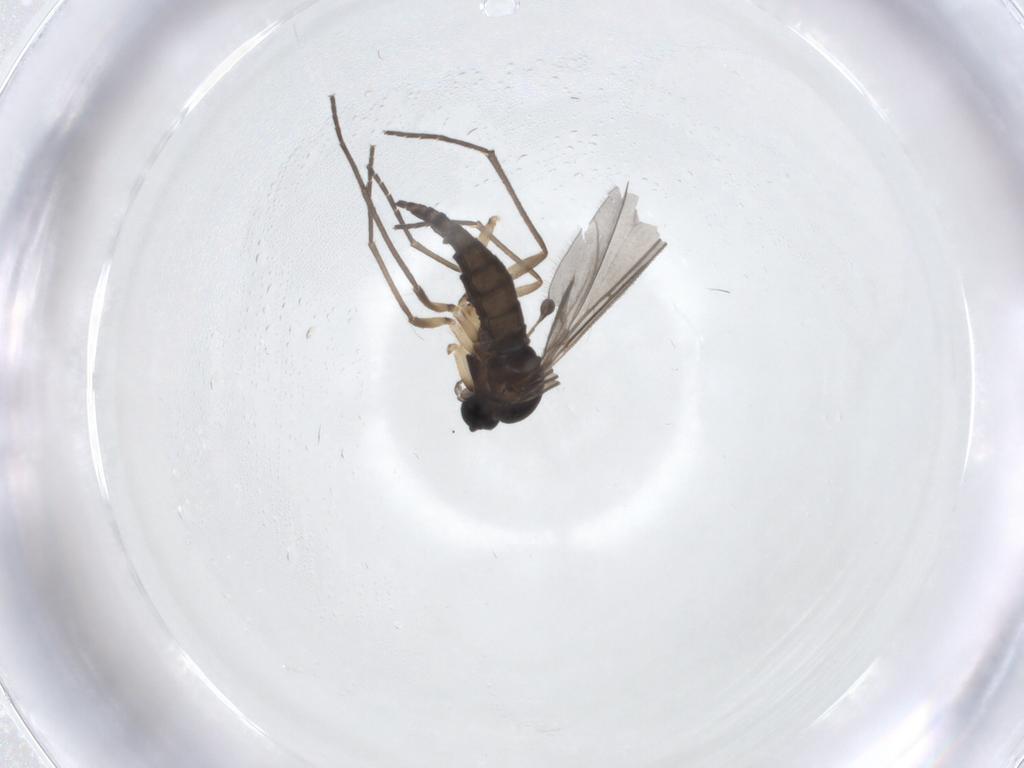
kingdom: Animalia
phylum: Arthropoda
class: Insecta
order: Diptera
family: Sciaridae
